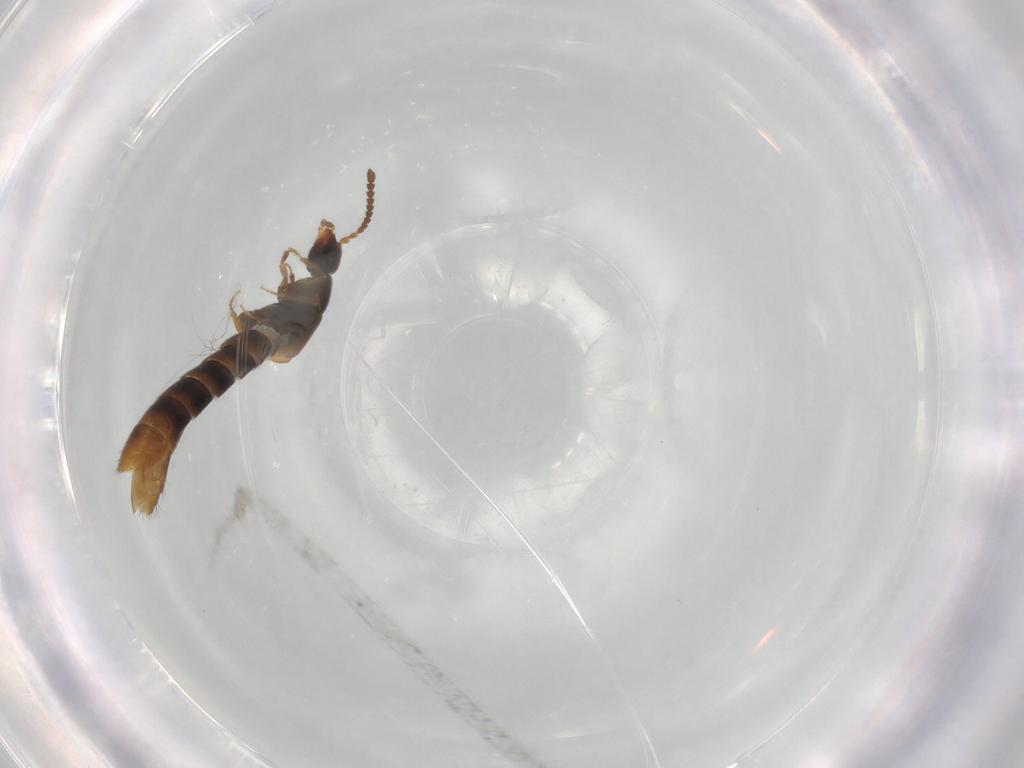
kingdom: Animalia
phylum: Arthropoda
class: Insecta
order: Coleoptera
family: Staphylinidae
